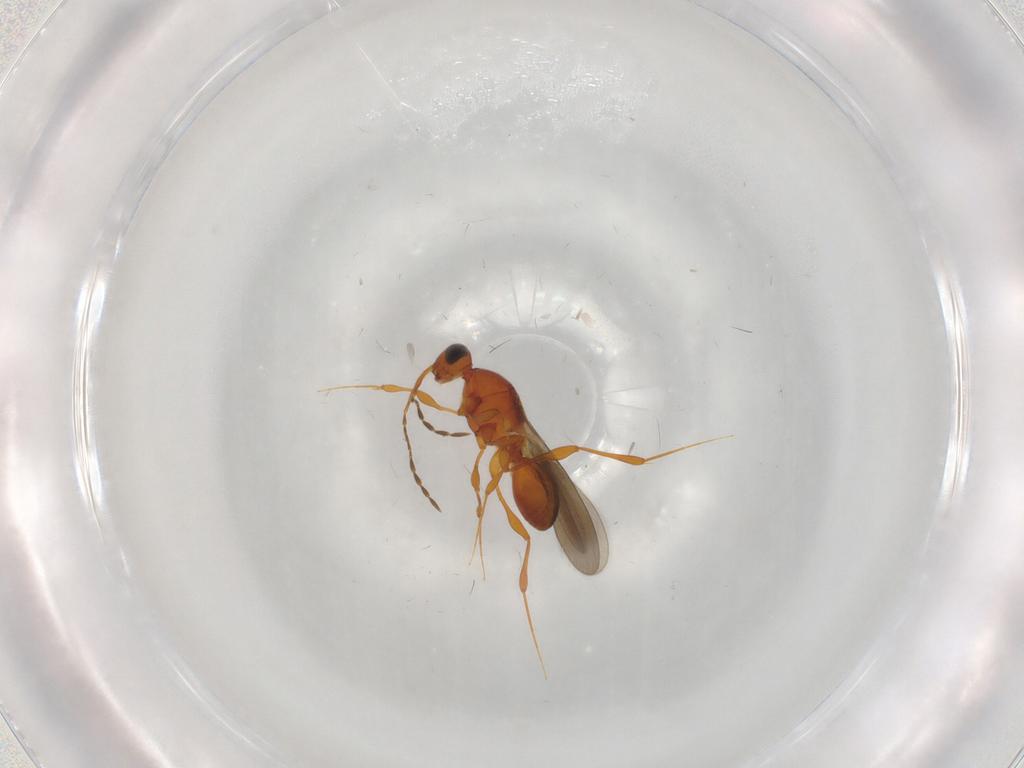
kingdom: Animalia
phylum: Arthropoda
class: Insecta
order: Hymenoptera
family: Platygastridae
